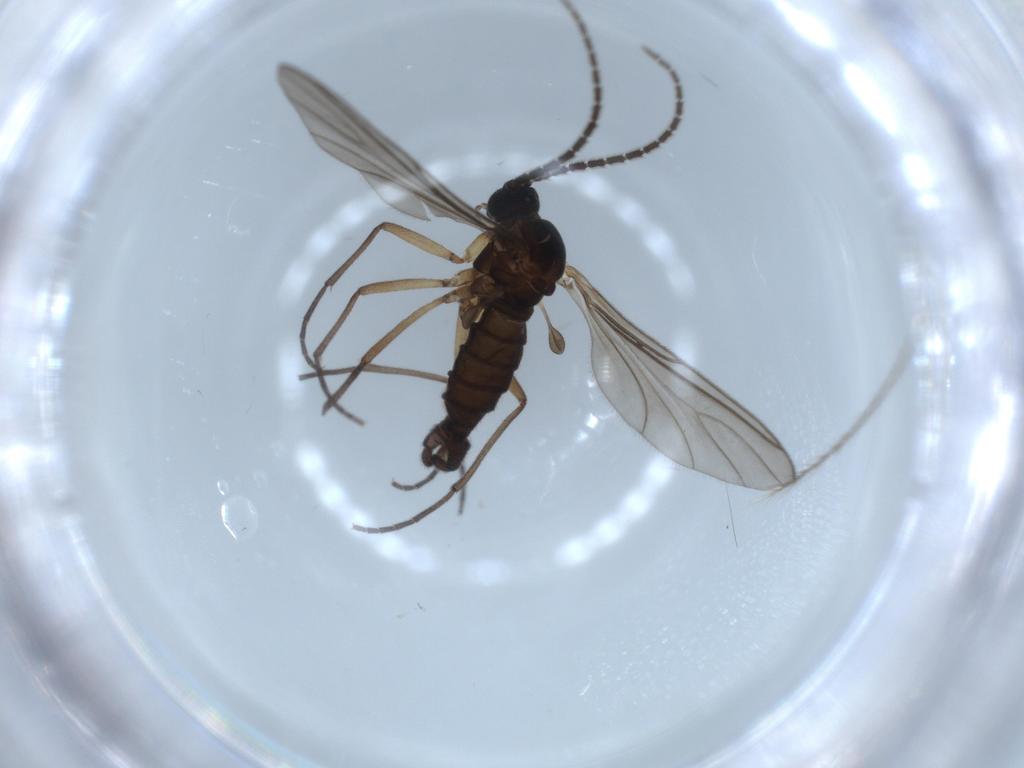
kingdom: Animalia
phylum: Arthropoda
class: Insecta
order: Diptera
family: Sciaridae
